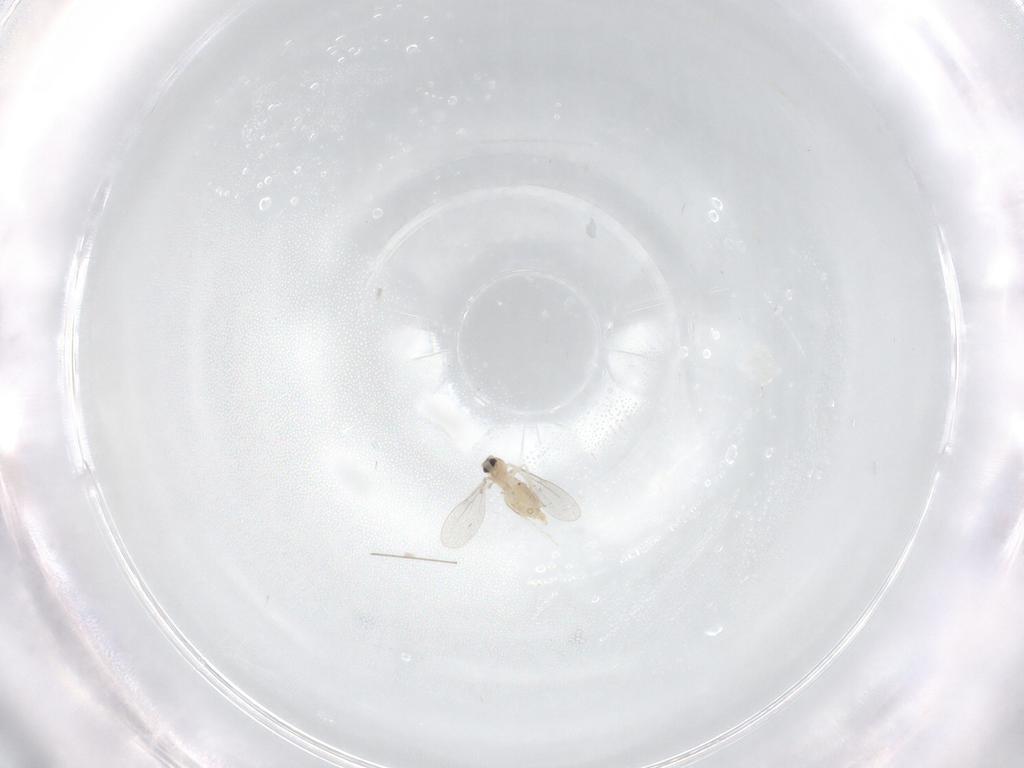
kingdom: Animalia
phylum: Arthropoda
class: Insecta
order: Diptera
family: Cecidomyiidae
